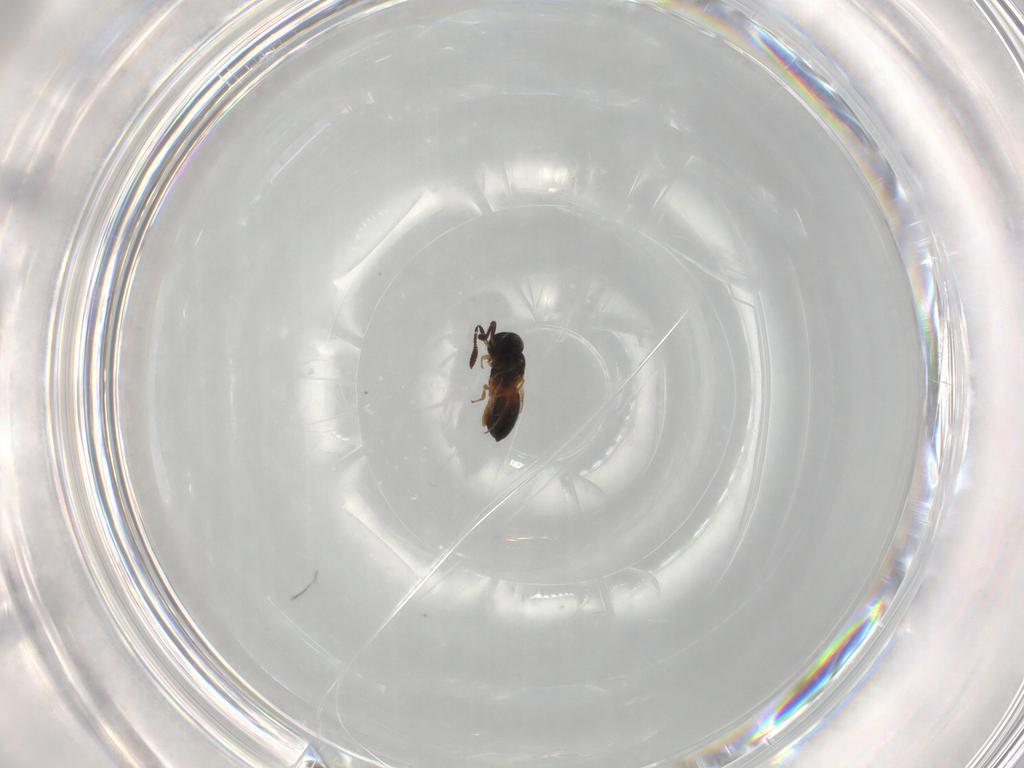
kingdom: Animalia
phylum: Arthropoda
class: Insecta
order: Hymenoptera
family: Scelionidae
